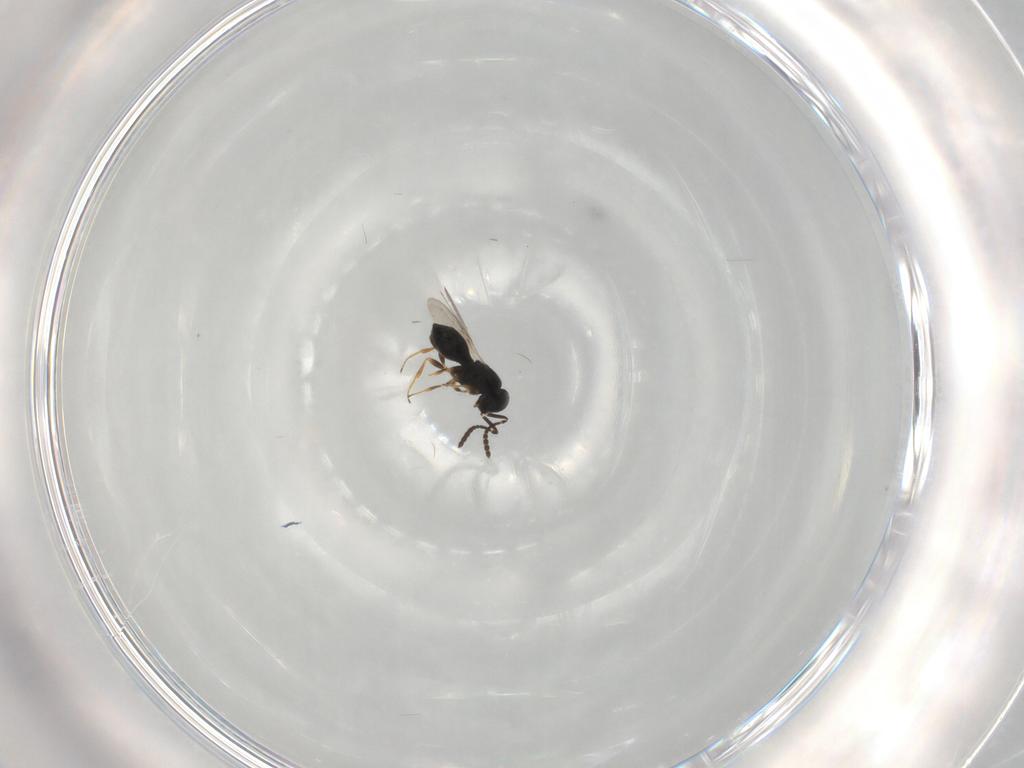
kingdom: Animalia
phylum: Arthropoda
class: Insecta
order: Hymenoptera
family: Scelionidae
